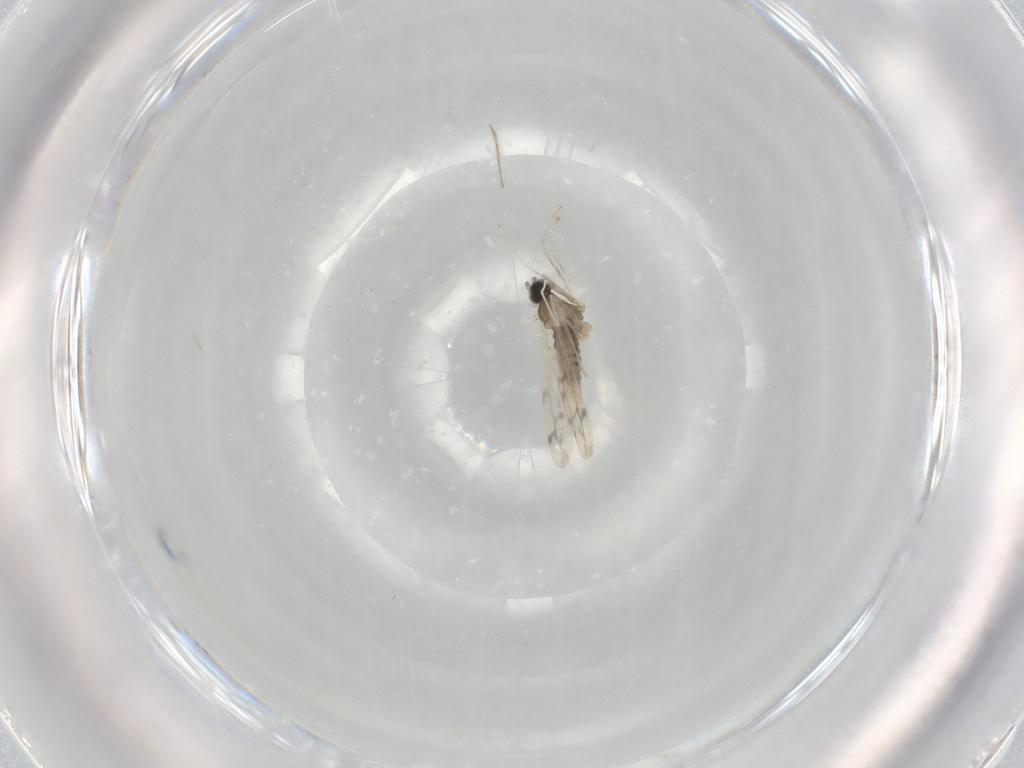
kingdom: Animalia
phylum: Arthropoda
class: Insecta
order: Diptera
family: Cecidomyiidae
